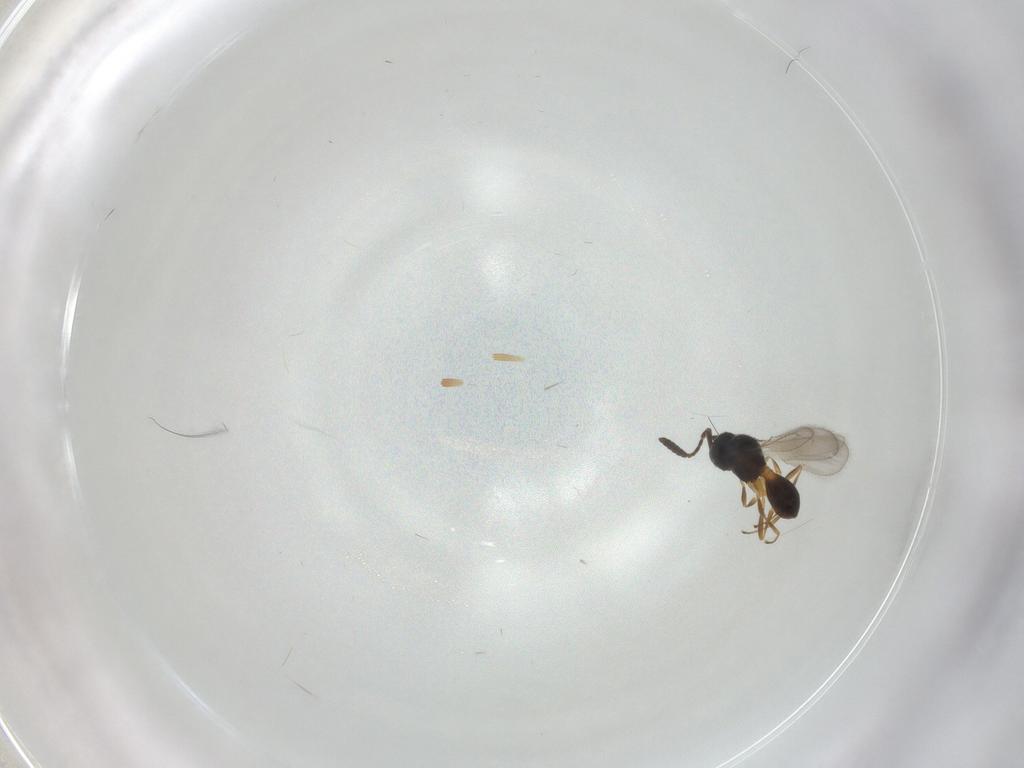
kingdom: Animalia
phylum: Arthropoda
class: Insecta
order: Hymenoptera
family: Scelionidae
